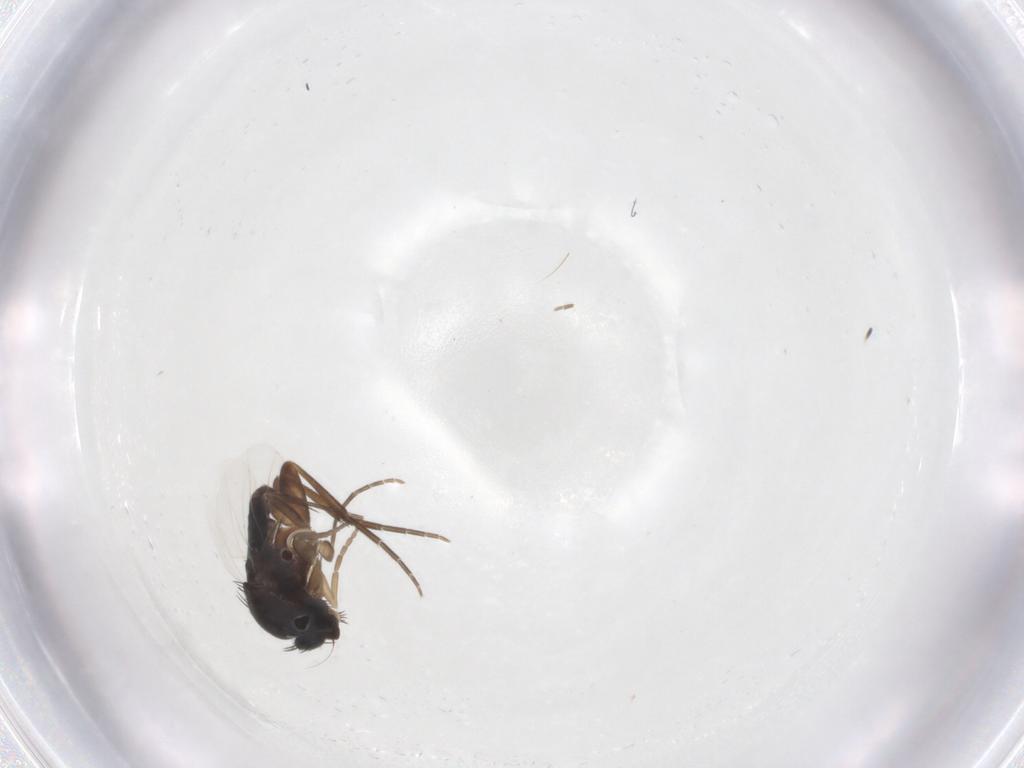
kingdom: Animalia
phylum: Arthropoda
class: Insecta
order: Diptera
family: Phoridae
